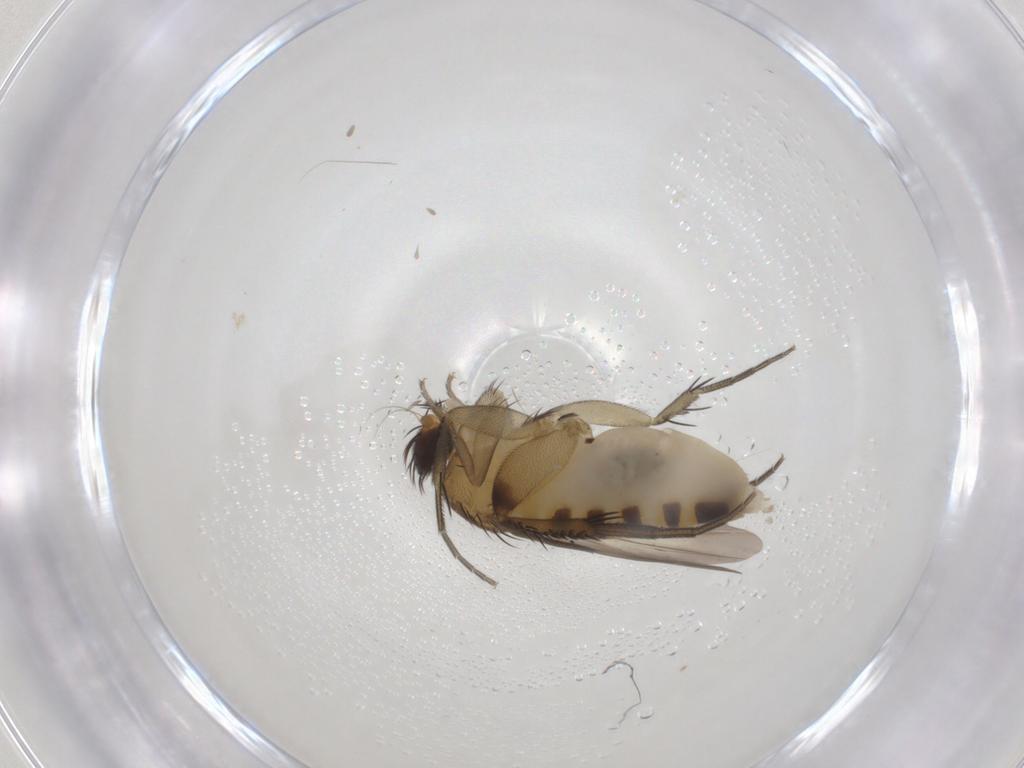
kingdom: Animalia
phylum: Arthropoda
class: Insecta
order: Diptera
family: Phoridae
